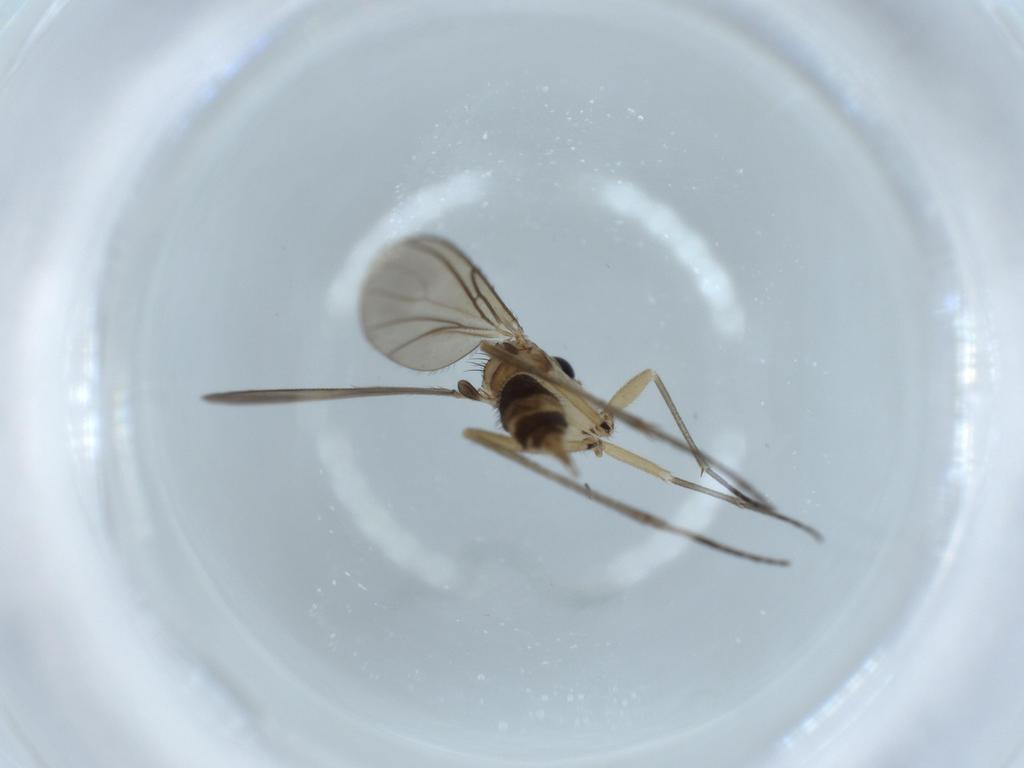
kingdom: Animalia
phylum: Arthropoda
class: Insecta
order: Diptera
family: Sciaridae
